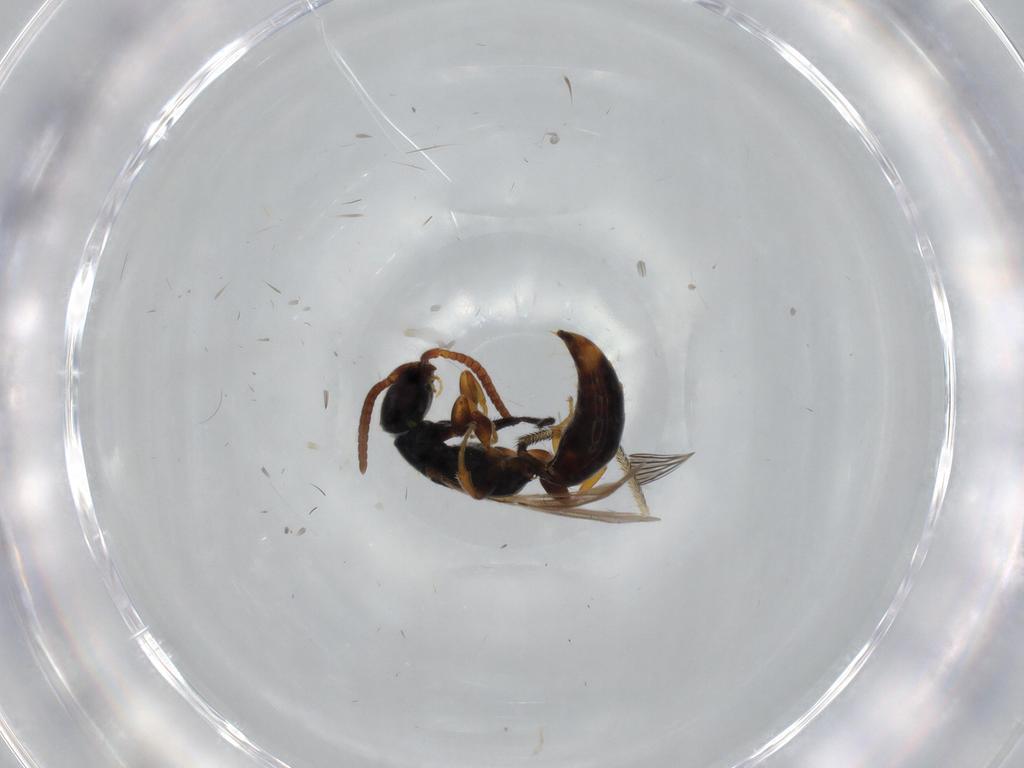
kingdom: Animalia
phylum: Arthropoda
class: Insecta
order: Hymenoptera
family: Bethylidae
